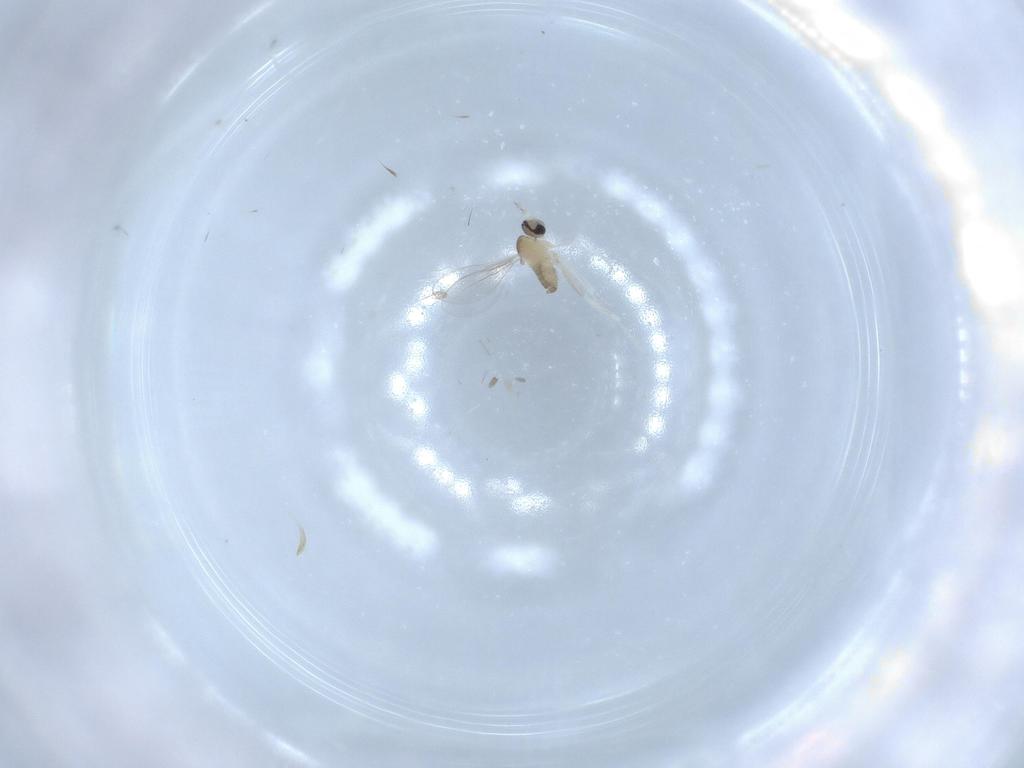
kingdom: Animalia
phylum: Arthropoda
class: Insecta
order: Diptera
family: Cecidomyiidae
